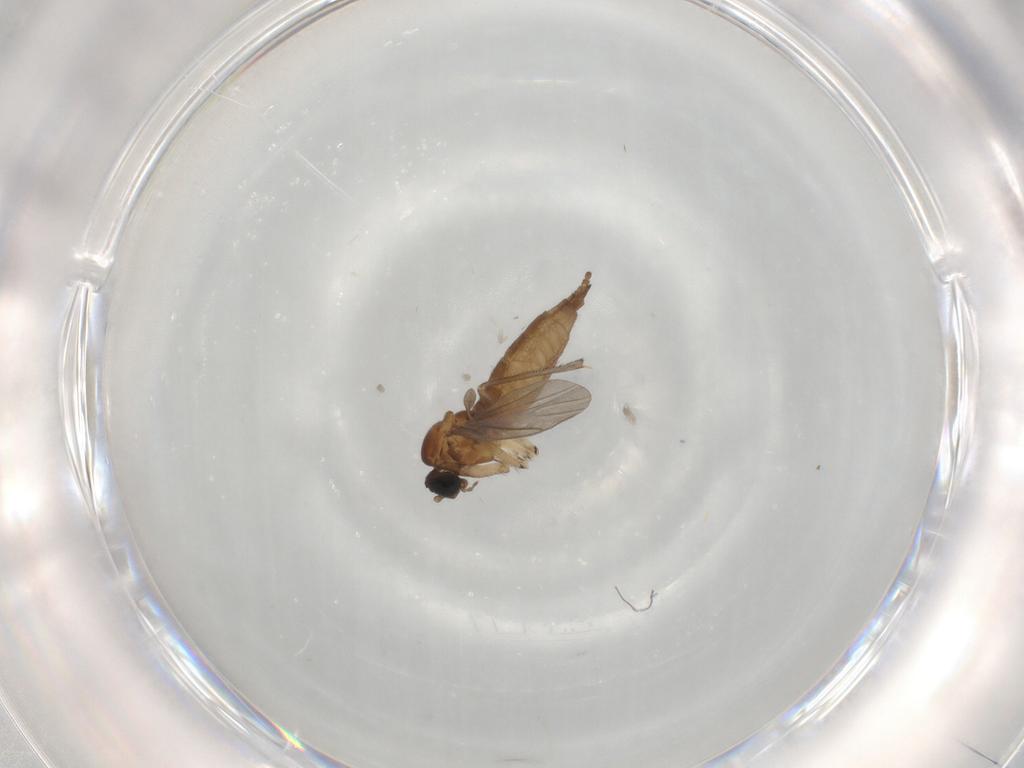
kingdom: Animalia
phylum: Arthropoda
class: Insecta
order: Diptera
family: Sciaridae
